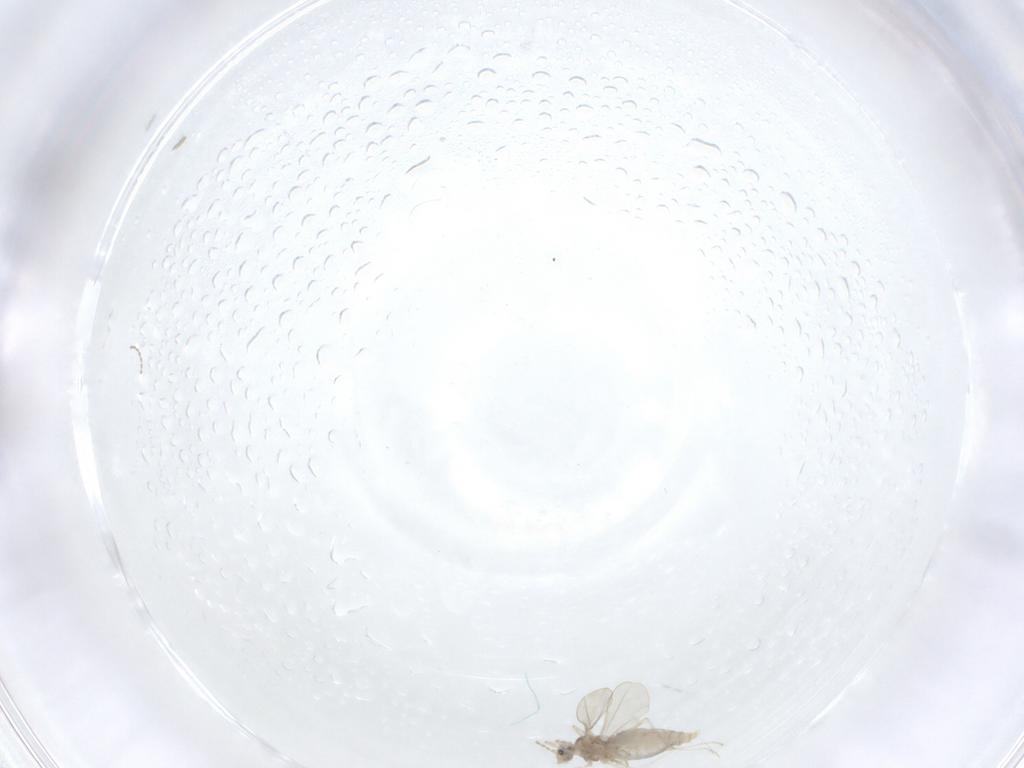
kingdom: Animalia
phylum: Arthropoda
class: Insecta
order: Diptera
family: Cecidomyiidae
